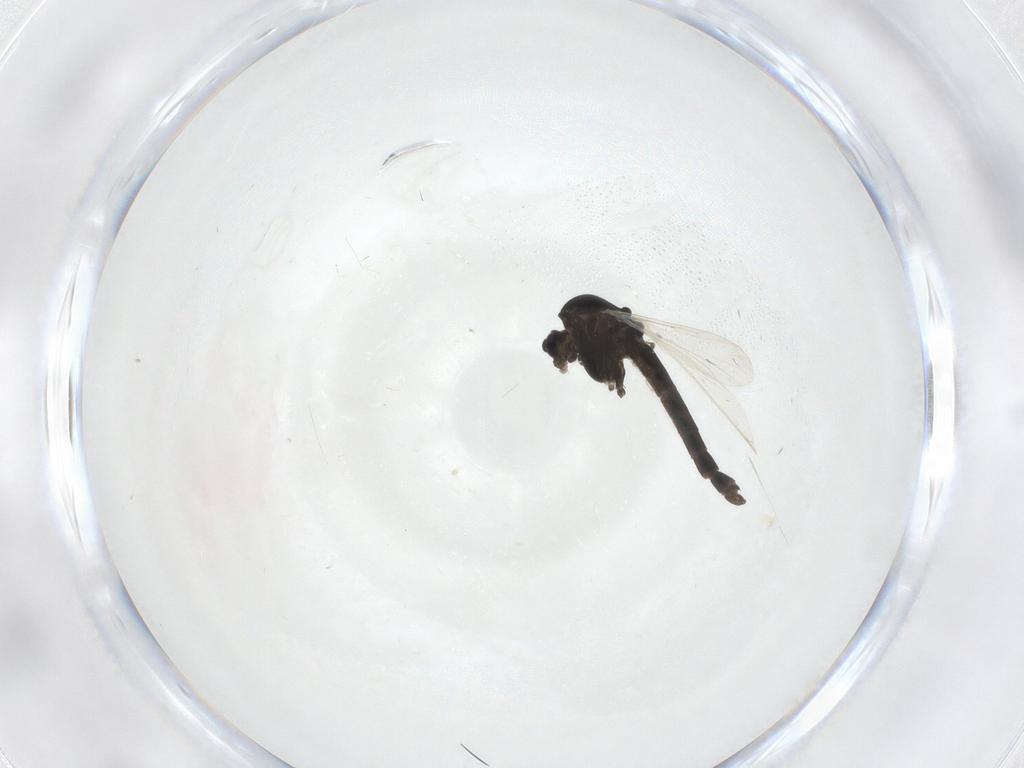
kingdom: Animalia
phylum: Arthropoda
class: Insecta
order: Diptera
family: Chironomidae
